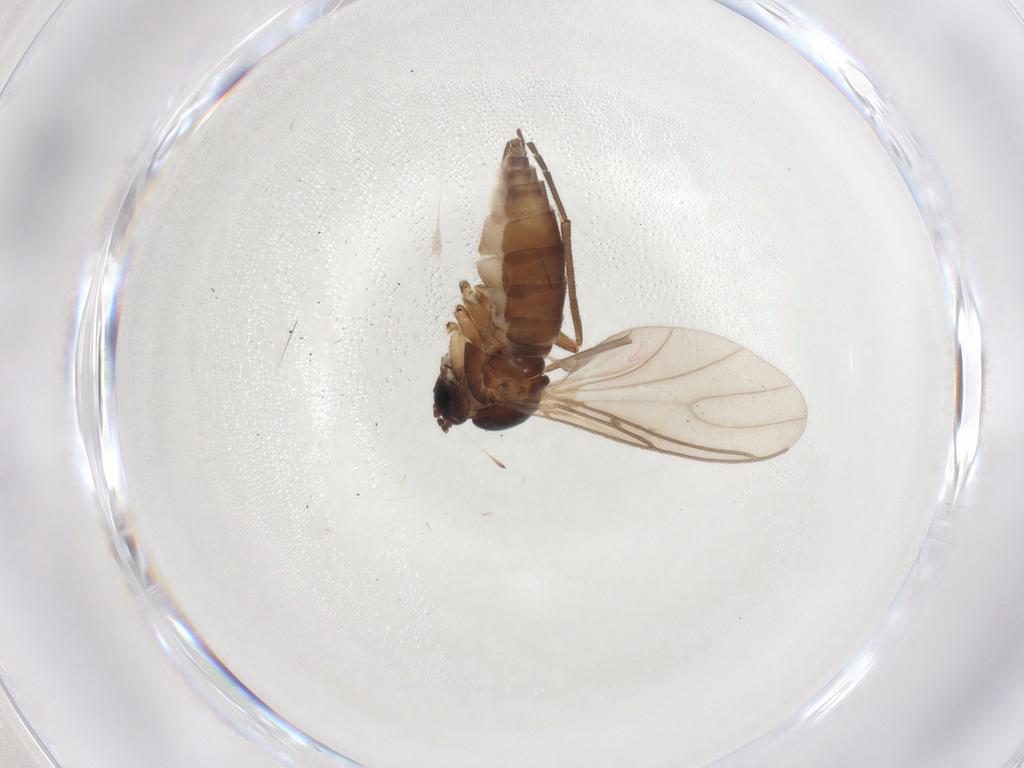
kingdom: Animalia
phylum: Arthropoda
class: Insecta
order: Diptera
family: Sciaridae
